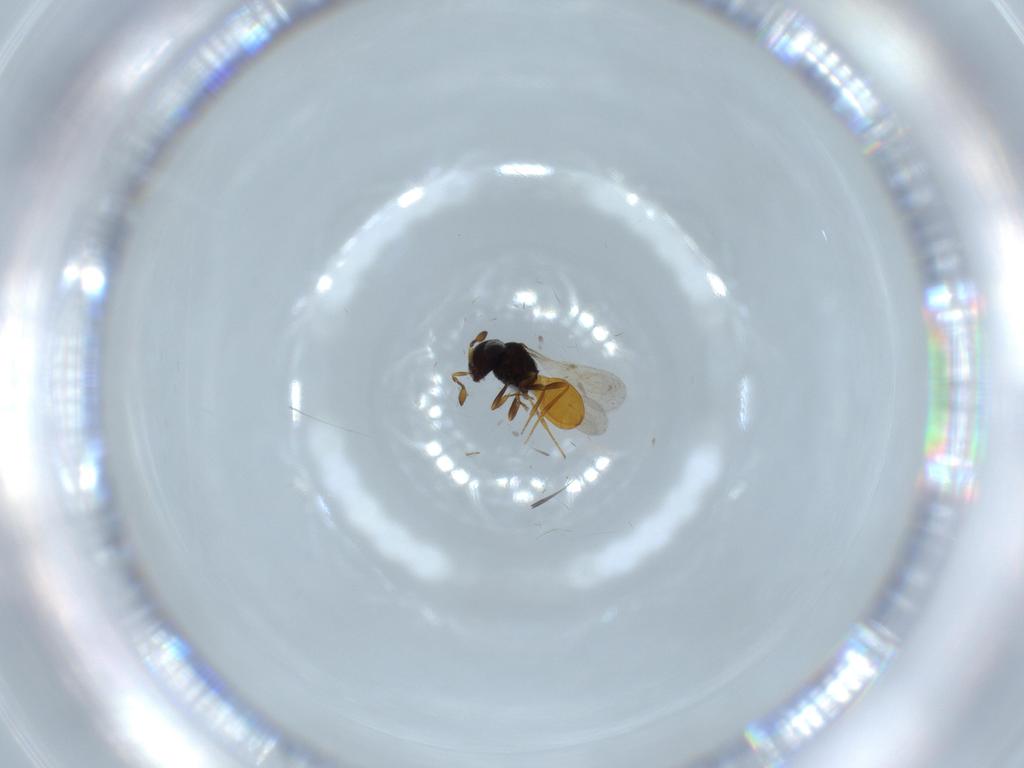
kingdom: Animalia
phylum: Arthropoda
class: Insecta
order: Hymenoptera
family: Scelionidae
